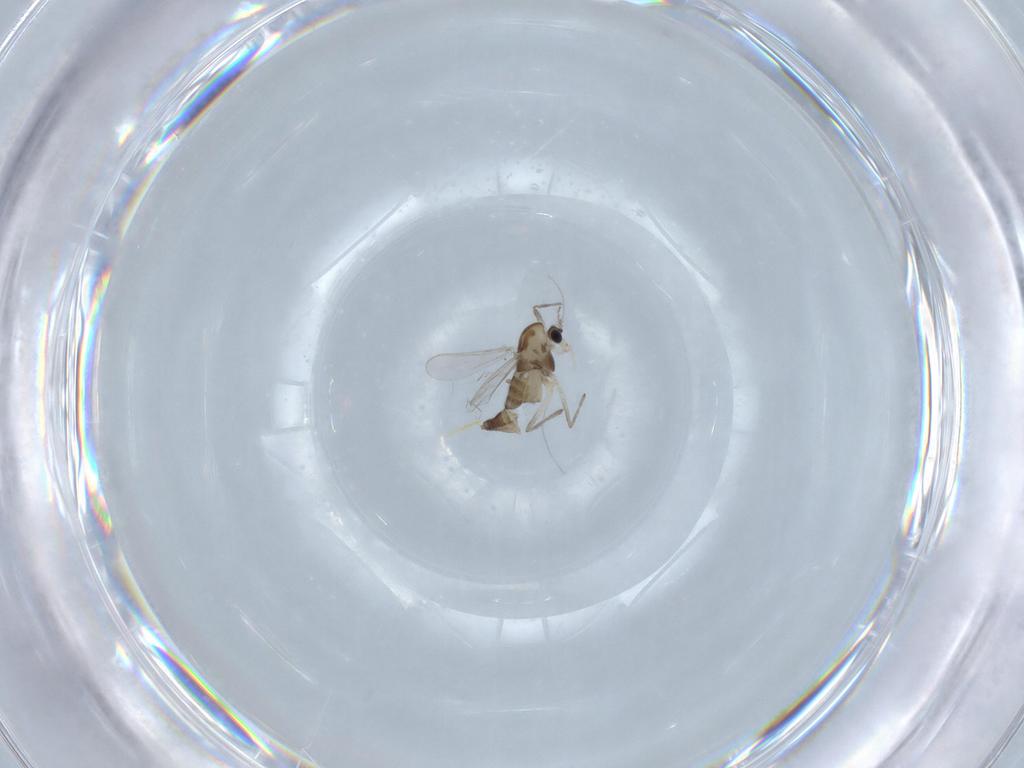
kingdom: Animalia
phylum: Arthropoda
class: Insecta
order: Diptera
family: Chironomidae
